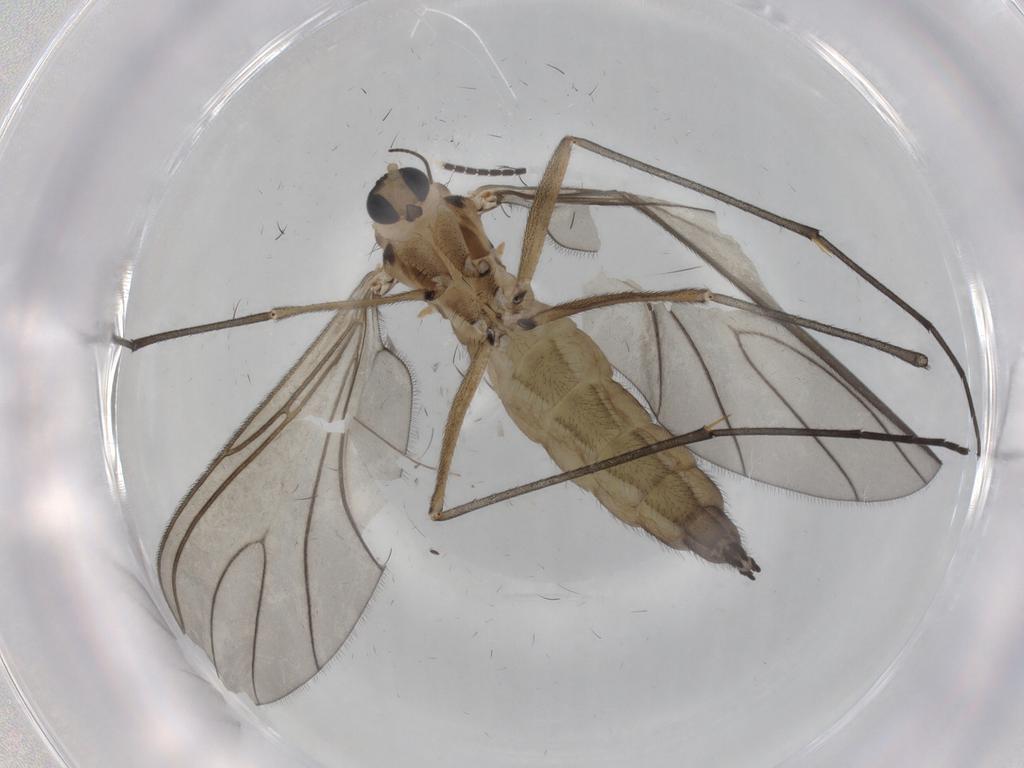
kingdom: Animalia
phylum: Arthropoda
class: Insecta
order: Diptera
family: Sciaridae
